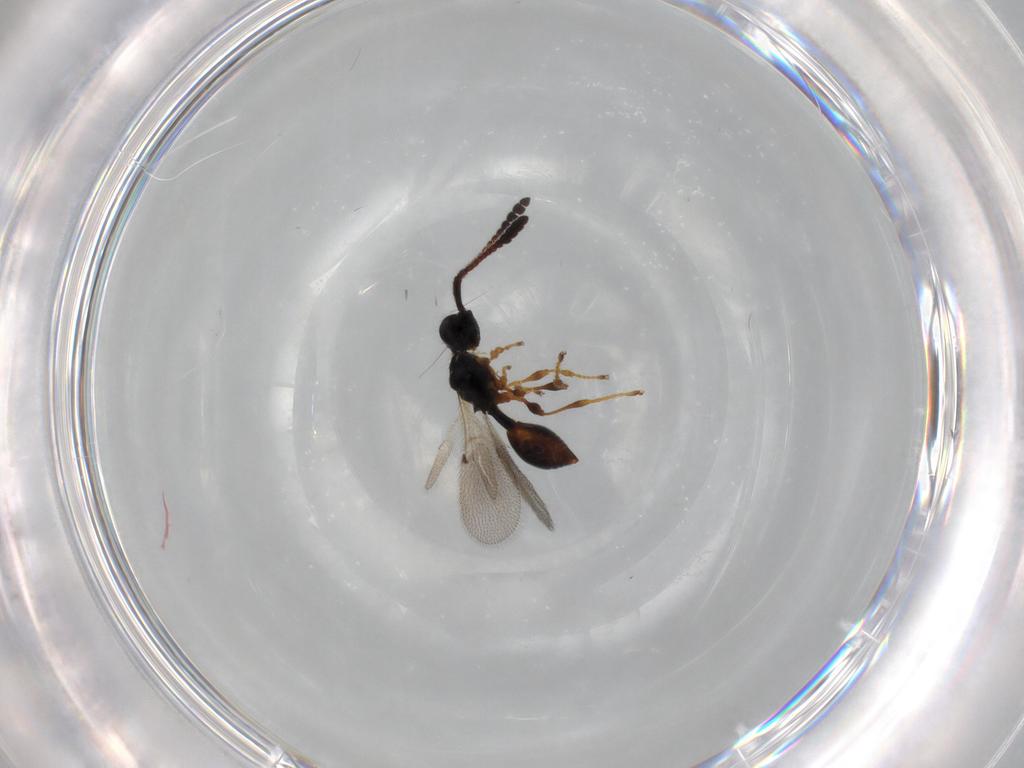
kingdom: Animalia
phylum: Arthropoda
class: Insecta
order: Hymenoptera
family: Diapriidae
